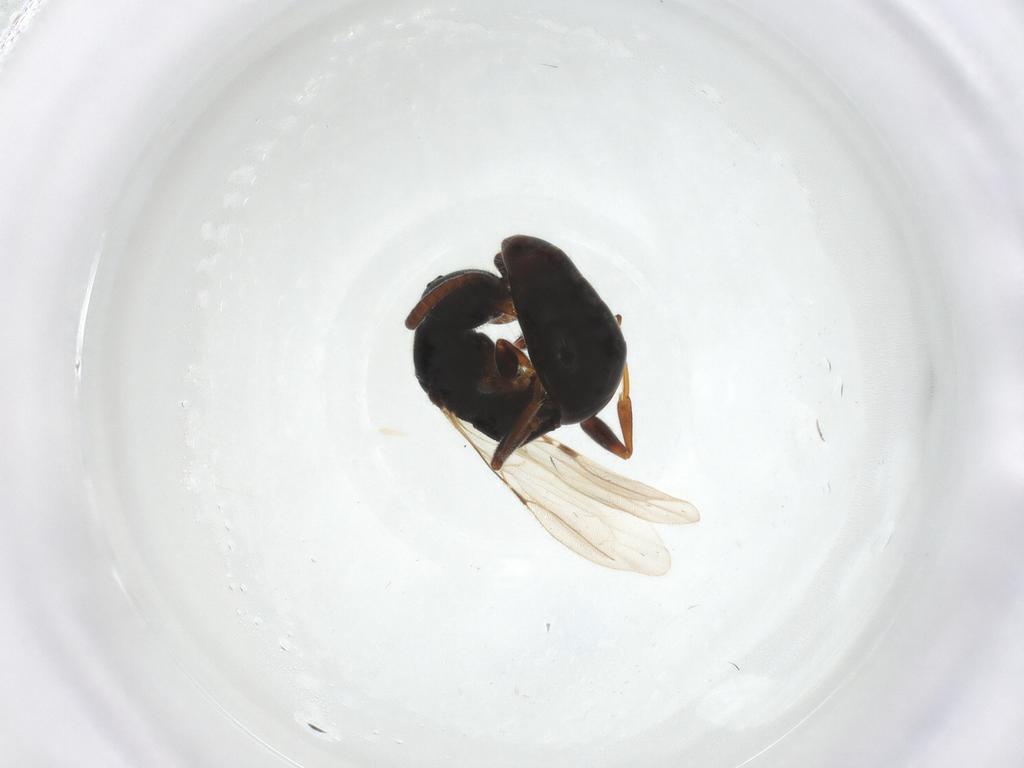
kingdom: Animalia
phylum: Arthropoda
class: Insecta
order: Hymenoptera
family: Bethylidae
